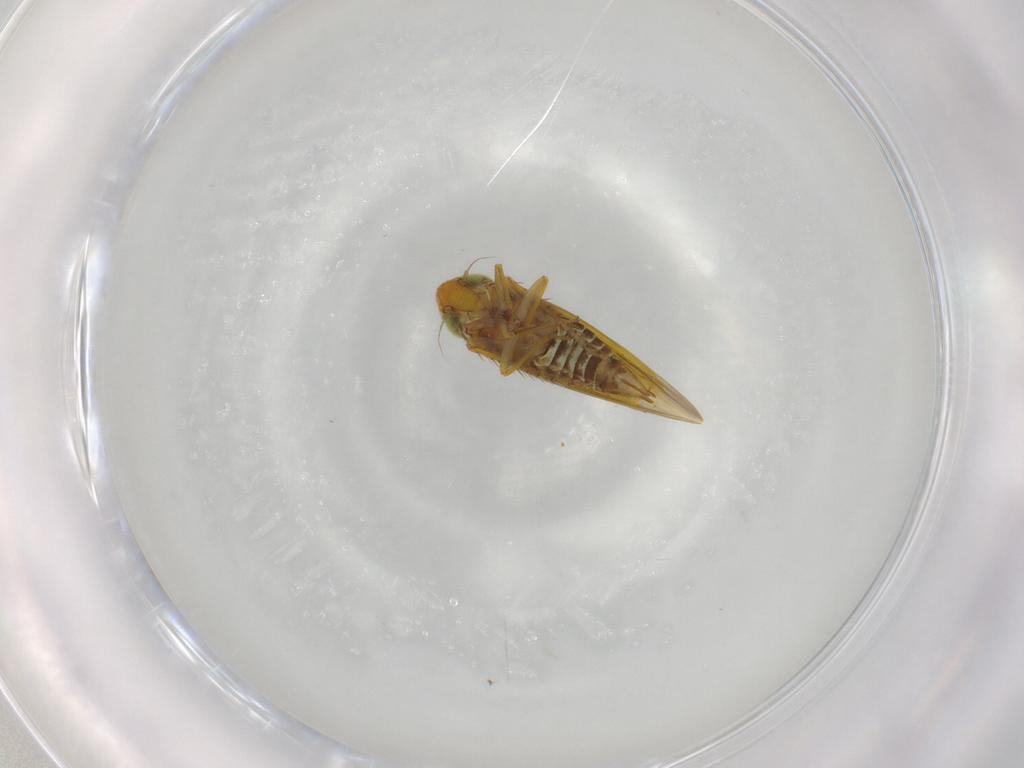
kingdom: Animalia
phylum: Arthropoda
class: Insecta
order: Hemiptera
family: Cicadellidae
